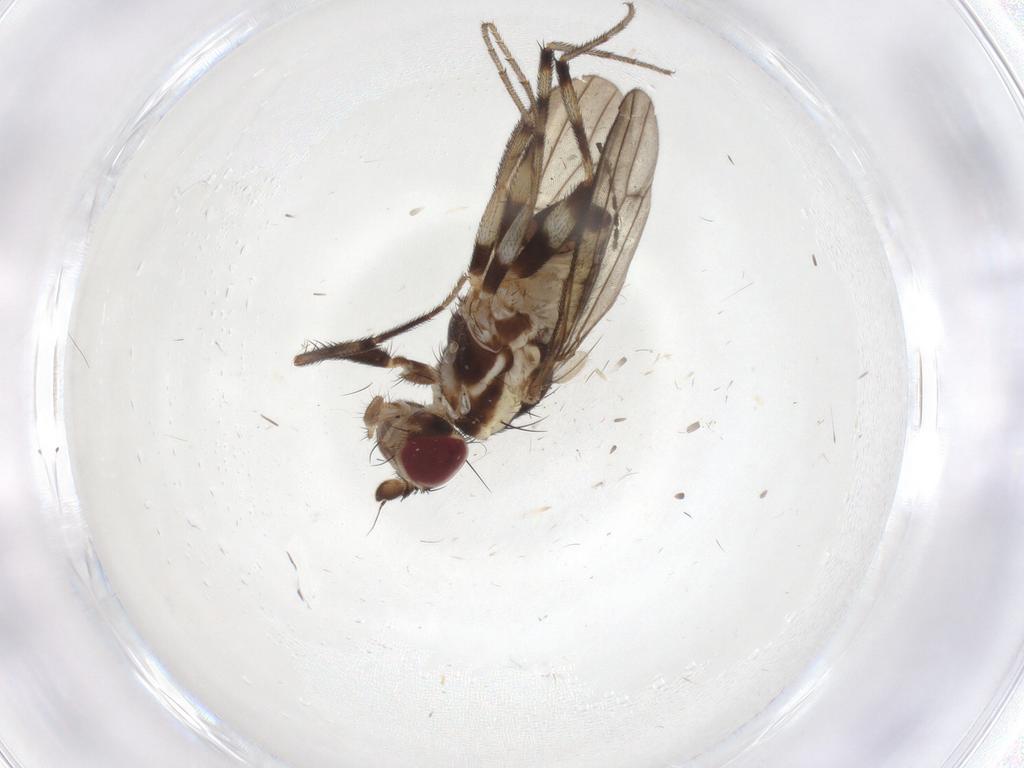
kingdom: Animalia
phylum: Arthropoda
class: Insecta
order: Diptera
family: Pseudopomyzidae
